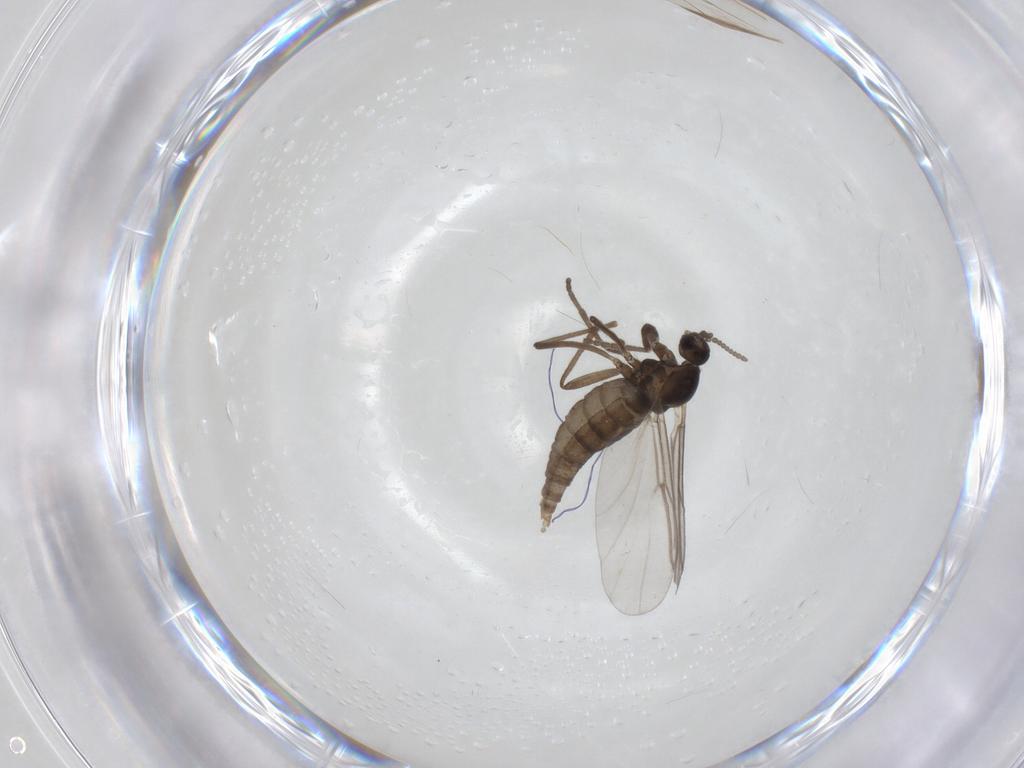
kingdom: Animalia
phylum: Arthropoda
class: Insecta
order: Diptera
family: Cecidomyiidae
